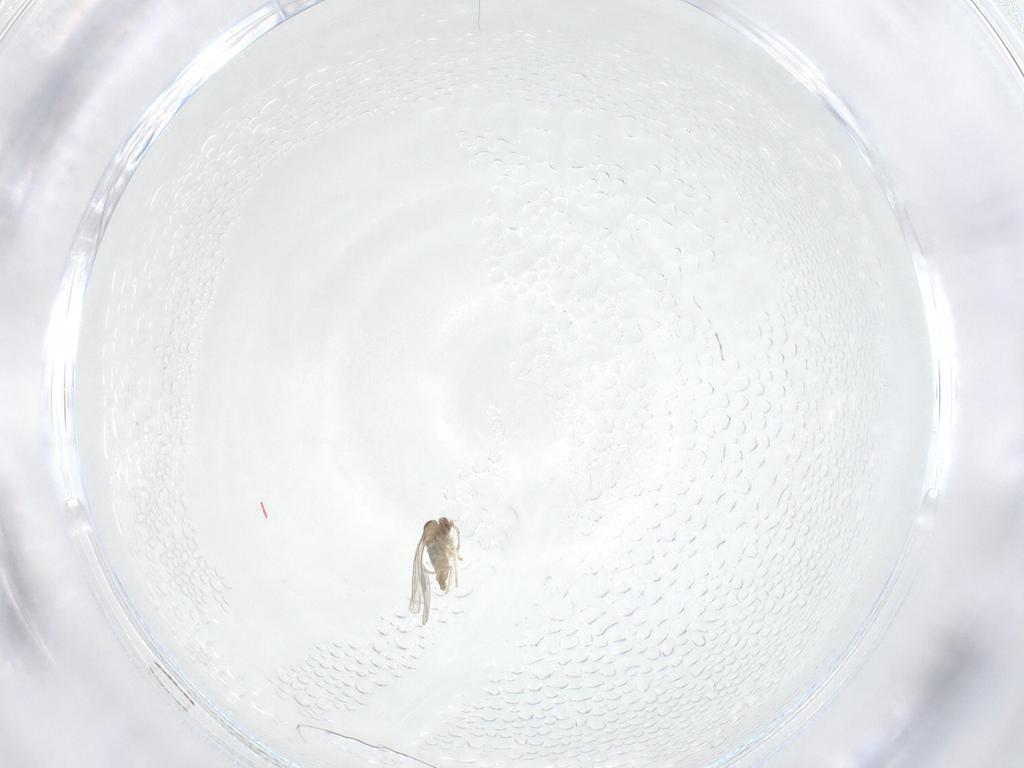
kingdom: Animalia
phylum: Arthropoda
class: Insecta
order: Diptera
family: Cecidomyiidae
